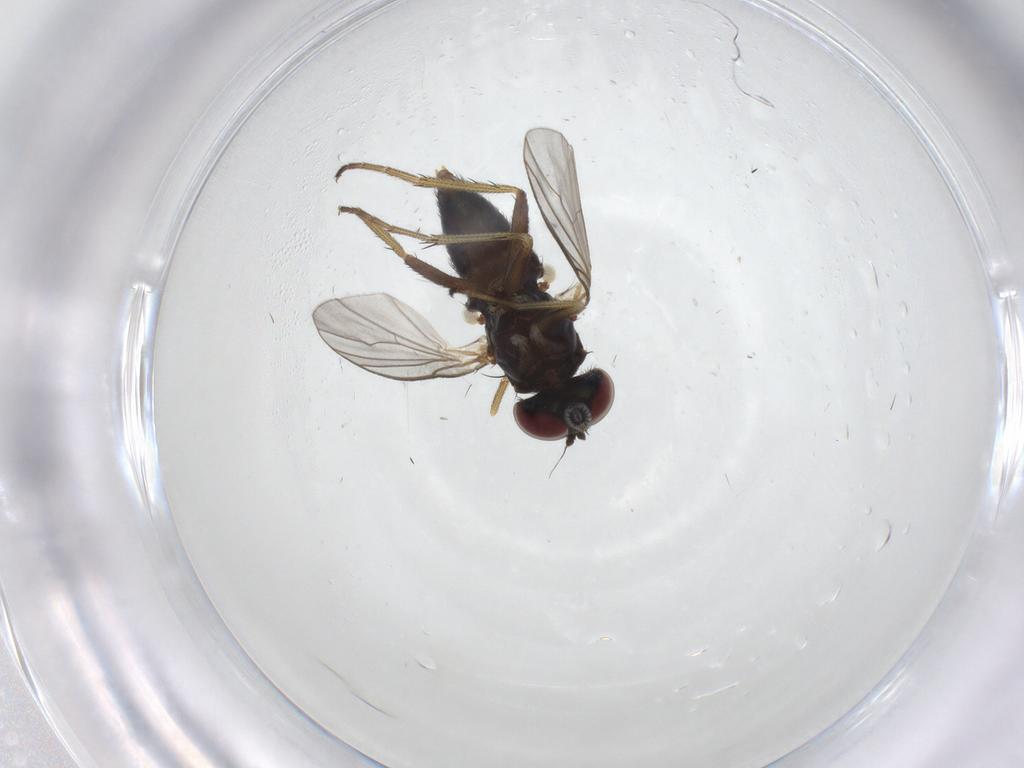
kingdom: Animalia
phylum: Arthropoda
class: Insecta
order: Diptera
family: Dolichopodidae
